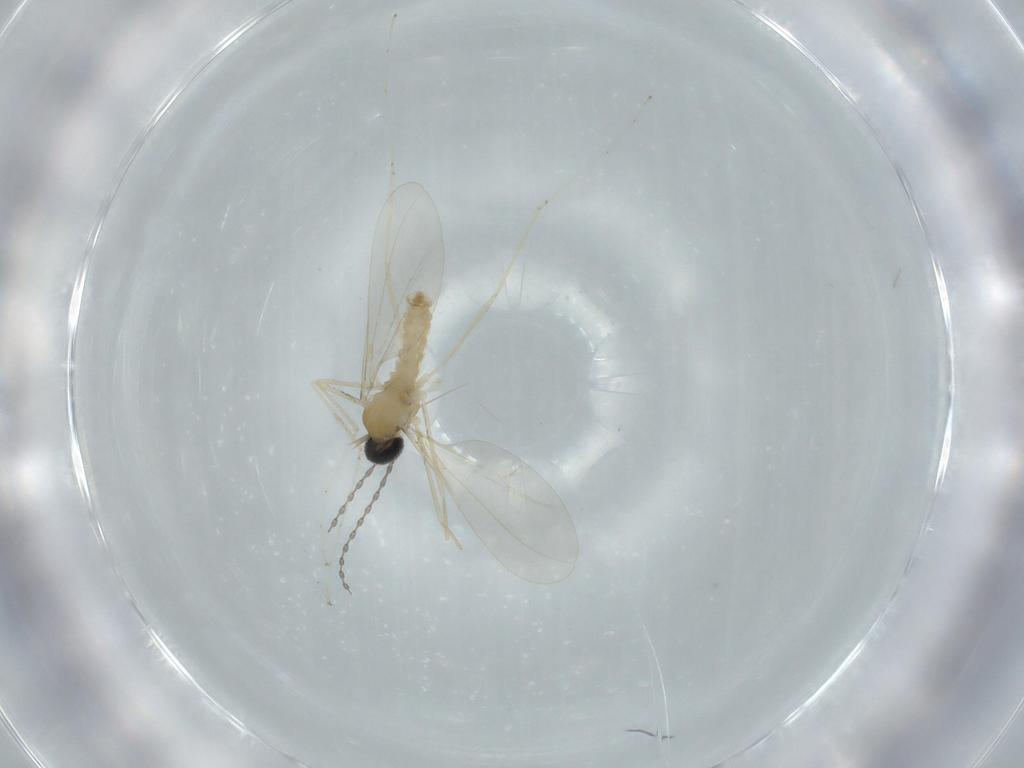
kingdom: Animalia
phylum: Arthropoda
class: Insecta
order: Diptera
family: Cecidomyiidae
